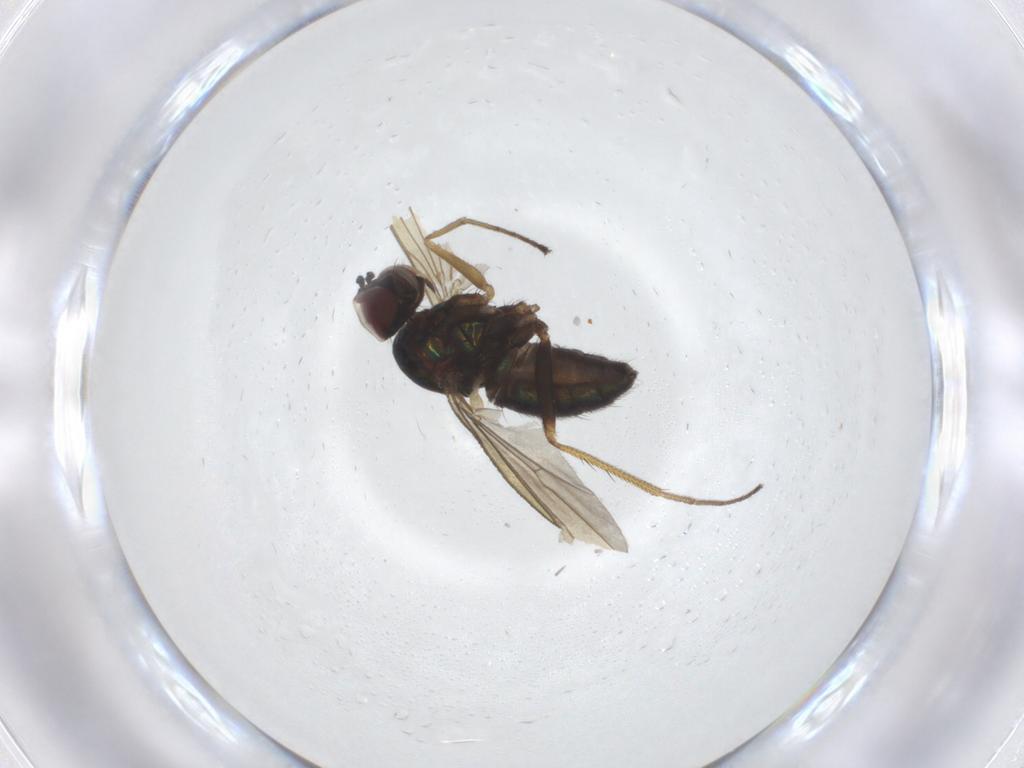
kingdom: Animalia
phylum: Arthropoda
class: Insecta
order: Diptera
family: Dolichopodidae
